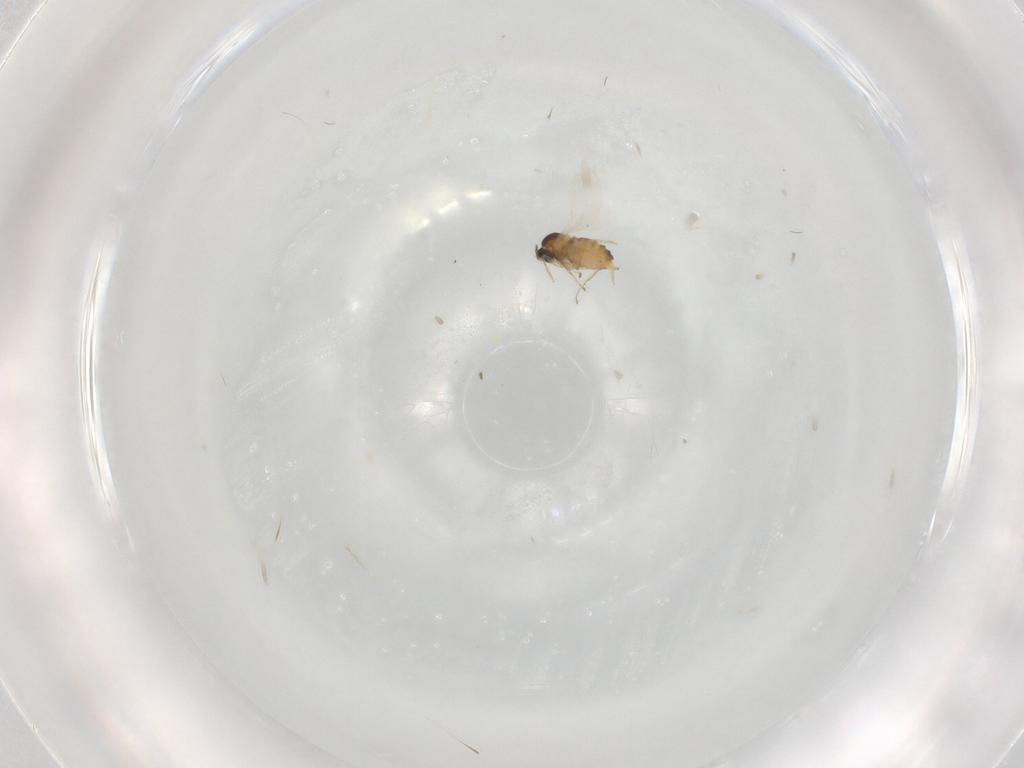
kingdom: Animalia
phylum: Arthropoda
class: Insecta
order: Diptera
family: Cecidomyiidae
